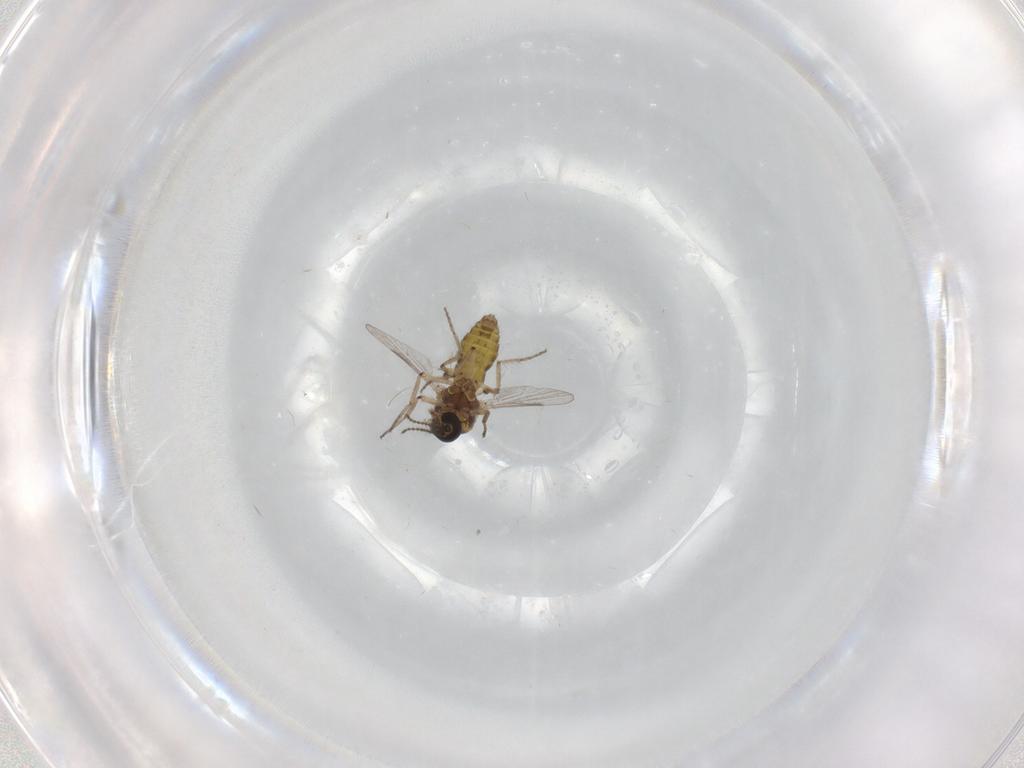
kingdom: Animalia
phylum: Arthropoda
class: Insecta
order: Diptera
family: Ceratopogonidae
